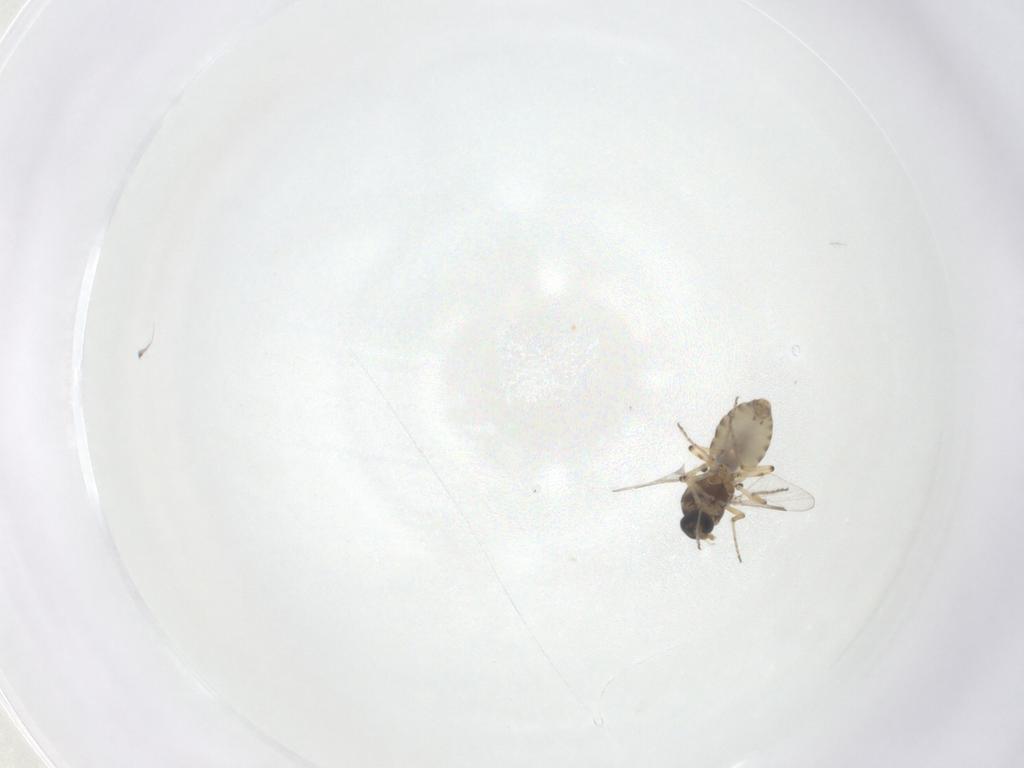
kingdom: Animalia
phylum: Arthropoda
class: Insecta
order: Diptera
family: Ceratopogonidae
